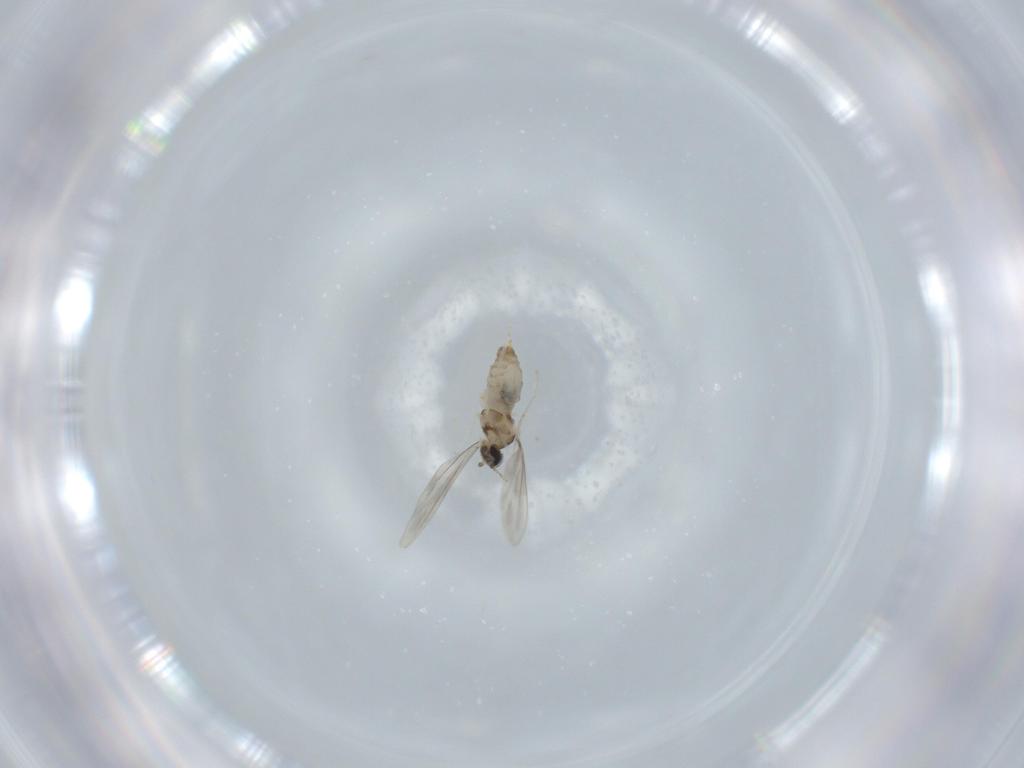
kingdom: Animalia
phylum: Arthropoda
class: Insecta
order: Diptera
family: Cecidomyiidae
